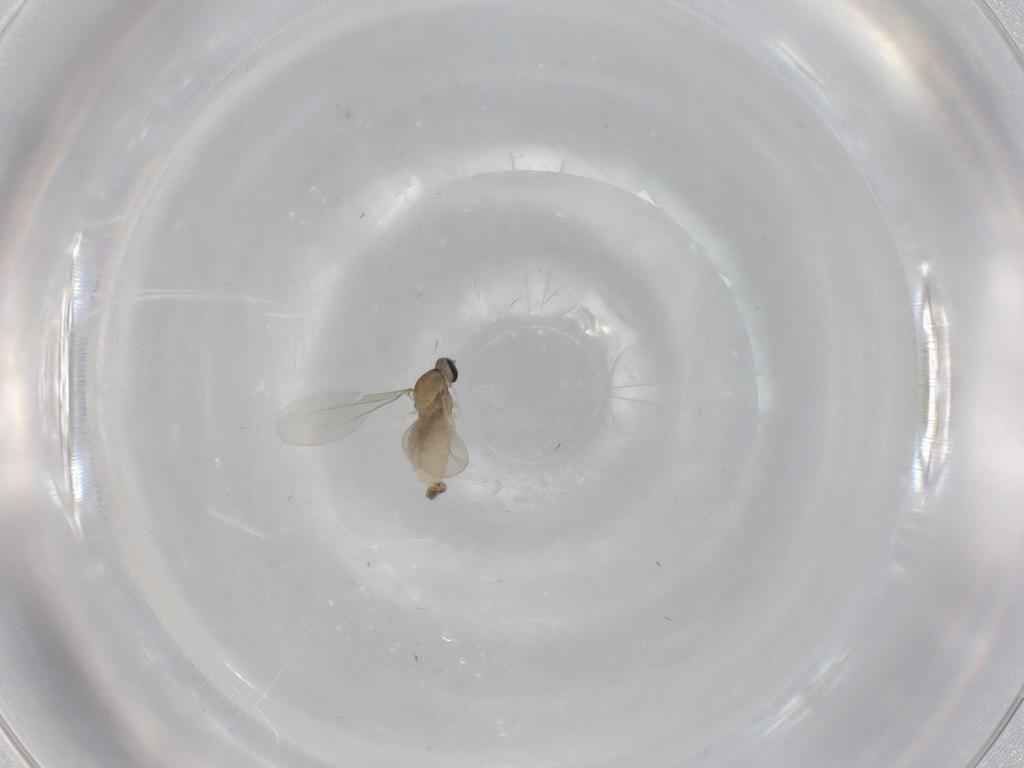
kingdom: Animalia
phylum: Arthropoda
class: Insecta
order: Diptera
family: Cecidomyiidae
